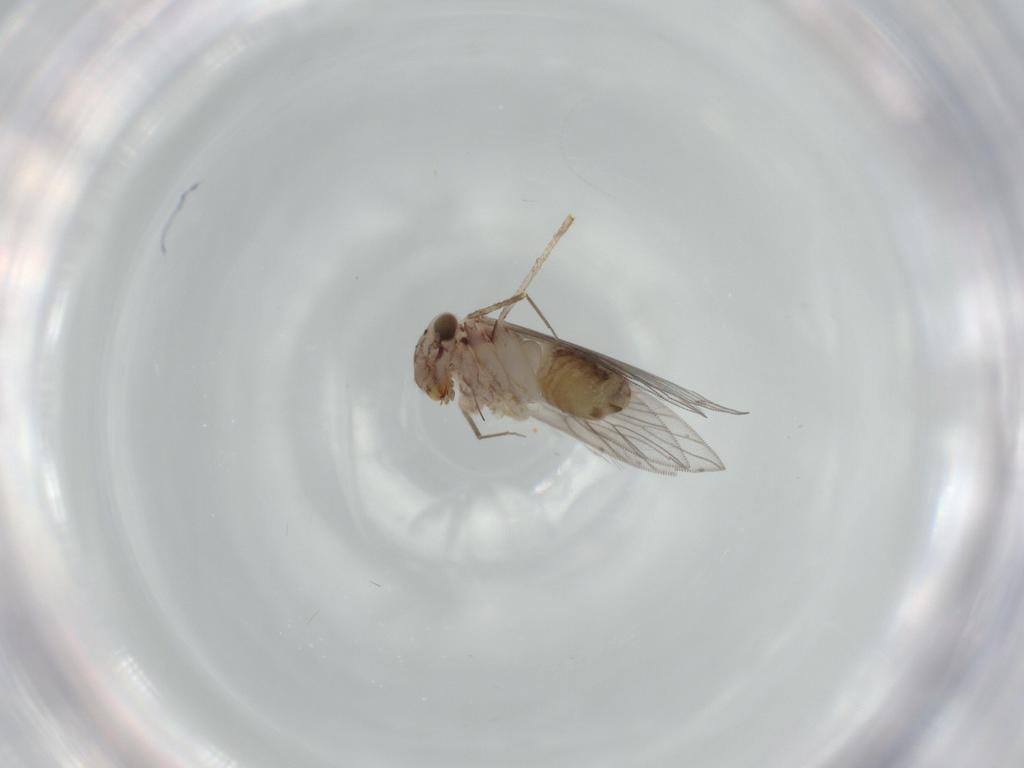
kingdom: Animalia
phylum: Arthropoda
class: Insecta
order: Psocodea
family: Lepidopsocidae
